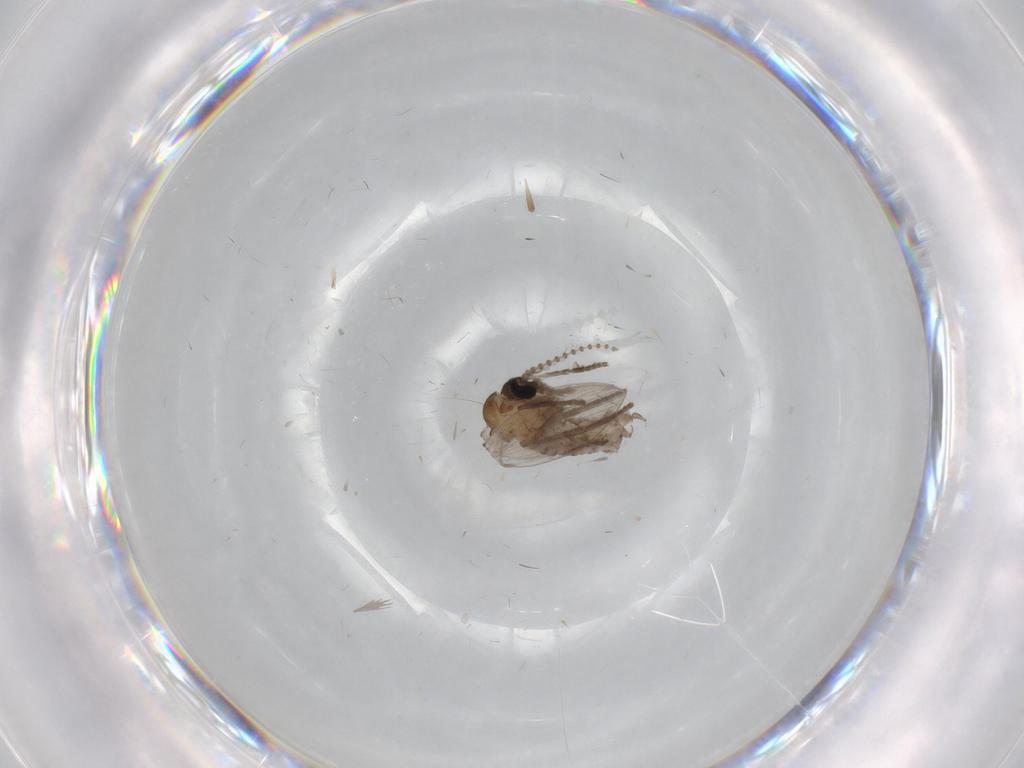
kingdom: Animalia
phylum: Arthropoda
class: Insecta
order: Diptera
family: Psychodidae
